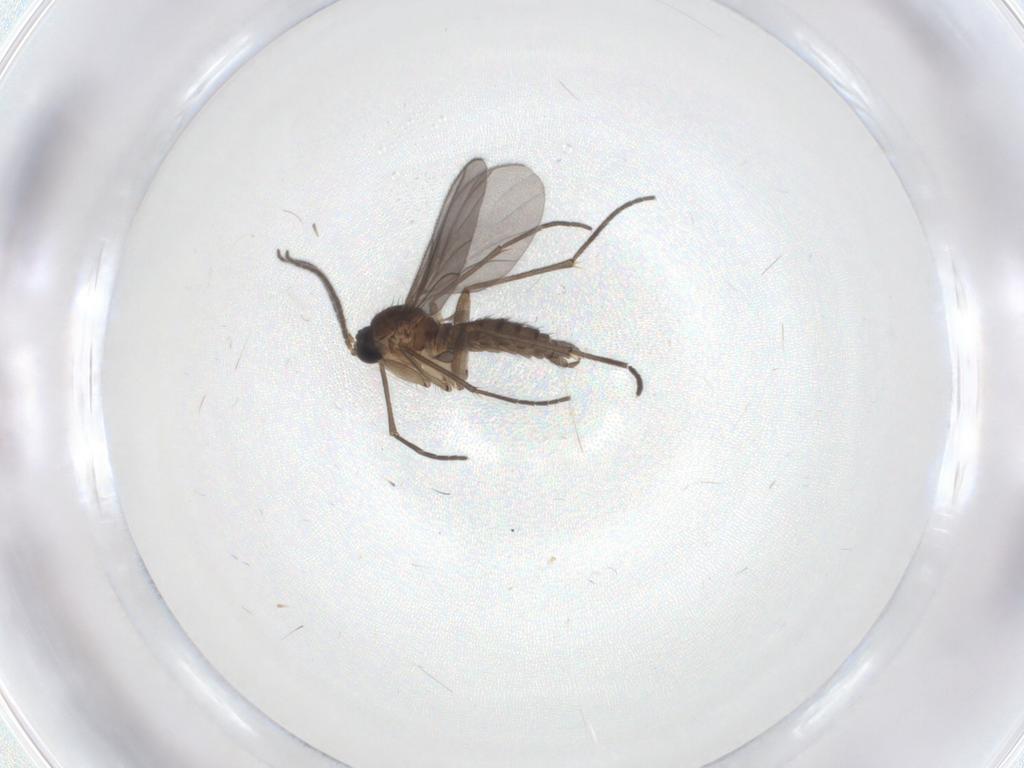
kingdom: Animalia
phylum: Arthropoda
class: Insecta
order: Diptera
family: Sciaridae
